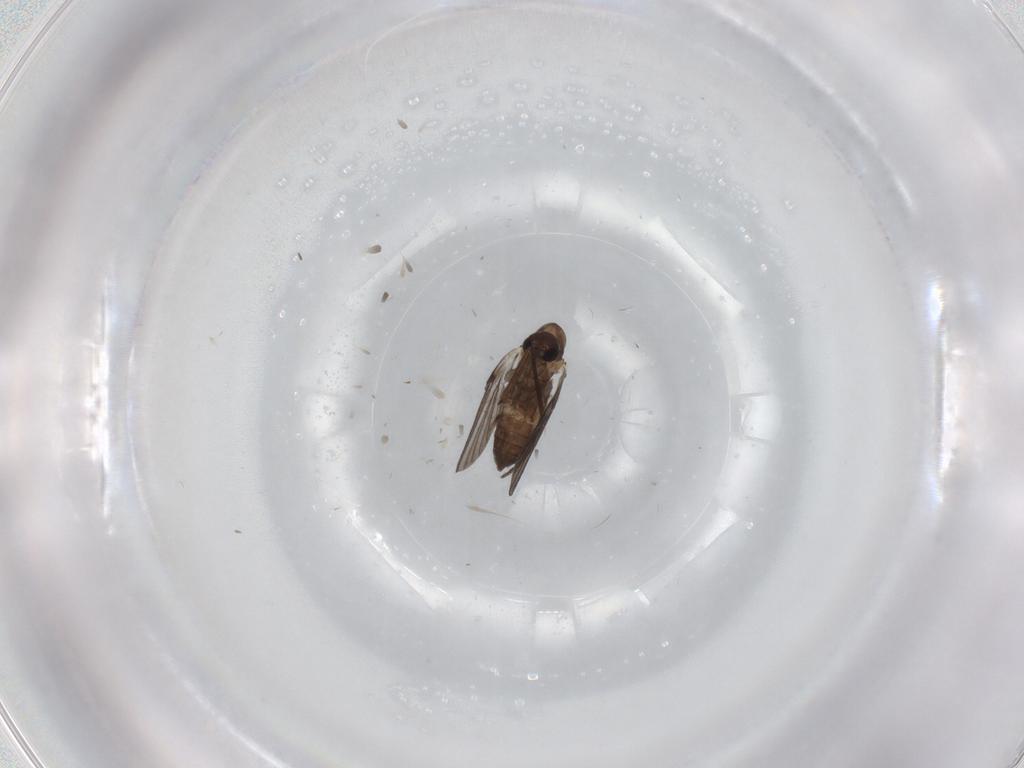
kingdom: Animalia
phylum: Arthropoda
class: Insecta
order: Diptera
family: Sciaridae
